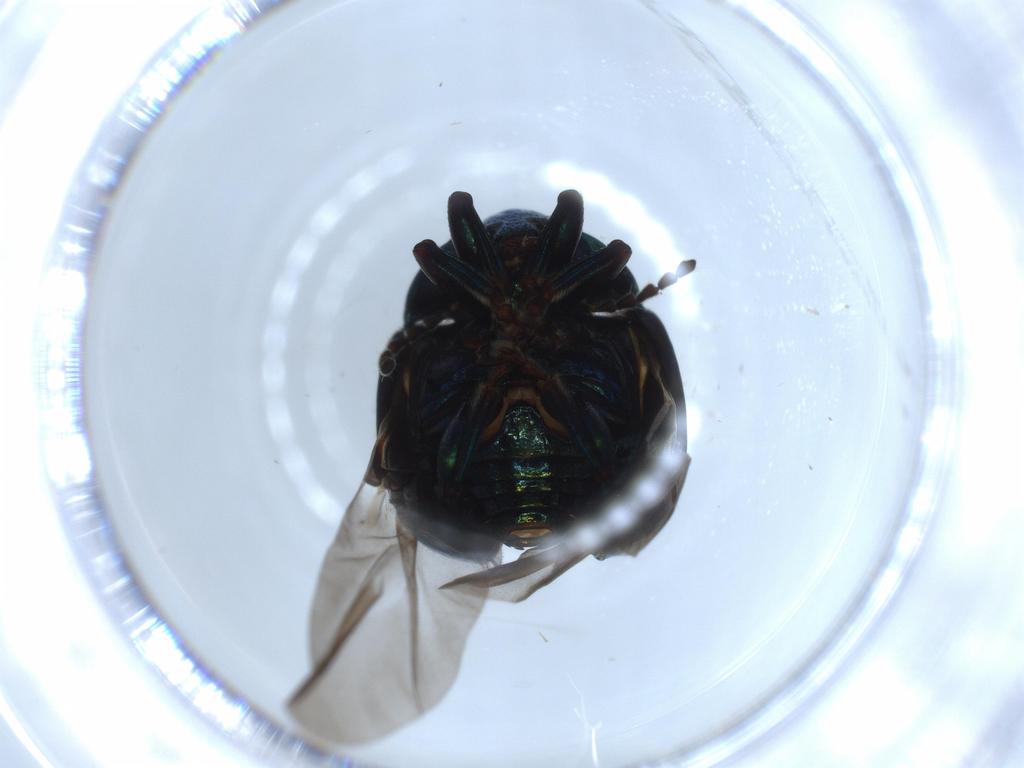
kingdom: Animalia
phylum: Arthropoda
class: Insecta
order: Coleoptera
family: Chrysomelidae
